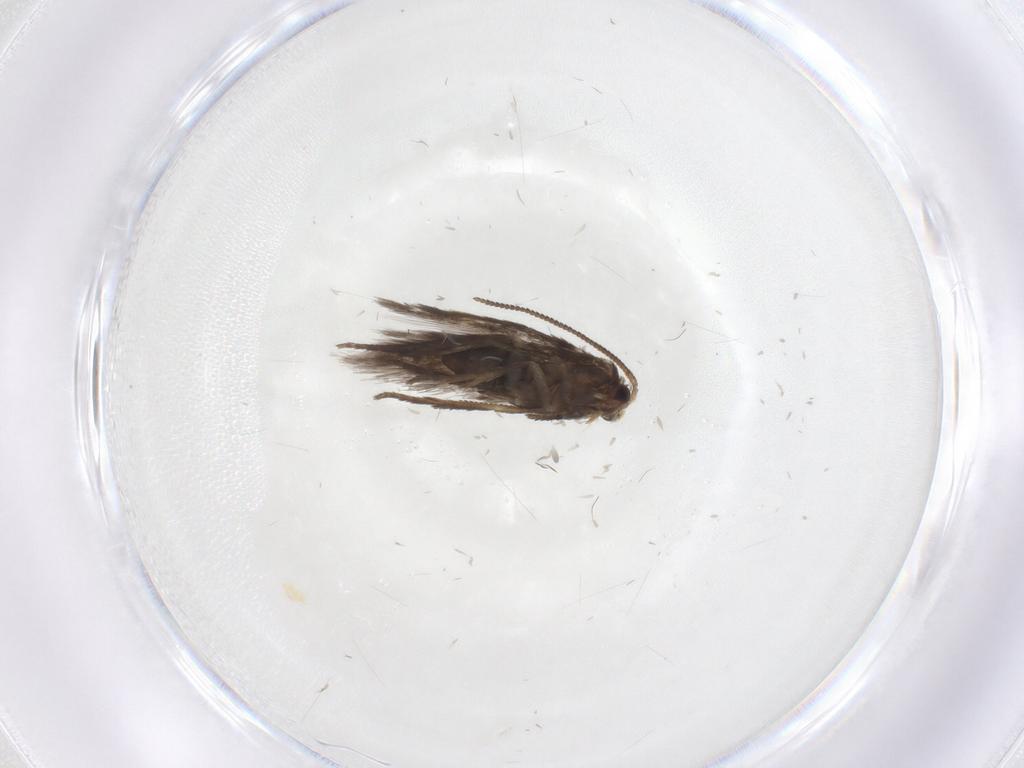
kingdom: Animalia
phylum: Arthropoda
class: Insecta
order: Lepidoptera
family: Nepticulidae
